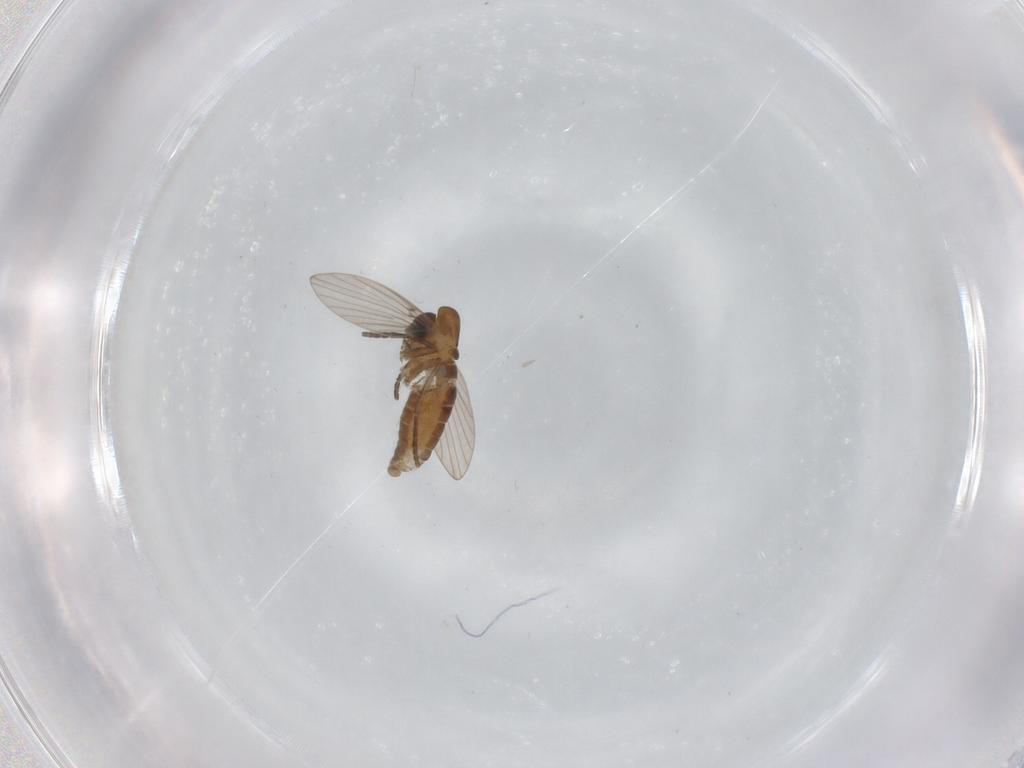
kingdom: Animalia
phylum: Arthropoda
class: Insecta
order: Diptera
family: Psychodidae
